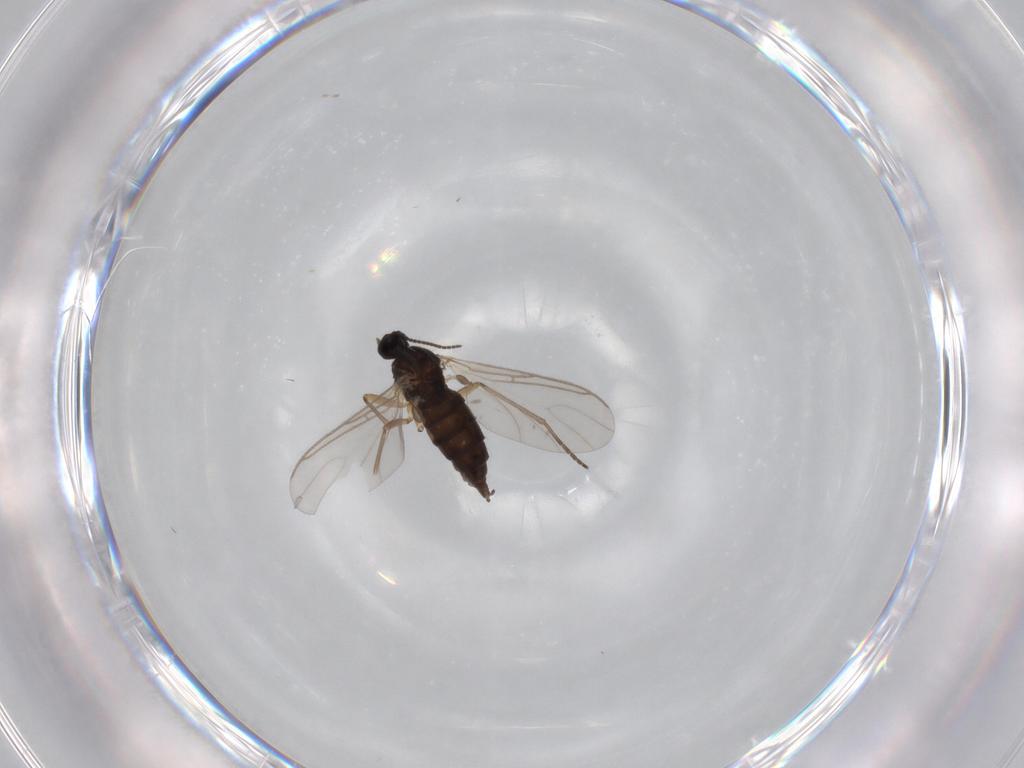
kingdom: Animalia
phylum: Arthropoda
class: Insecta
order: Diptera
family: Sciaridae
